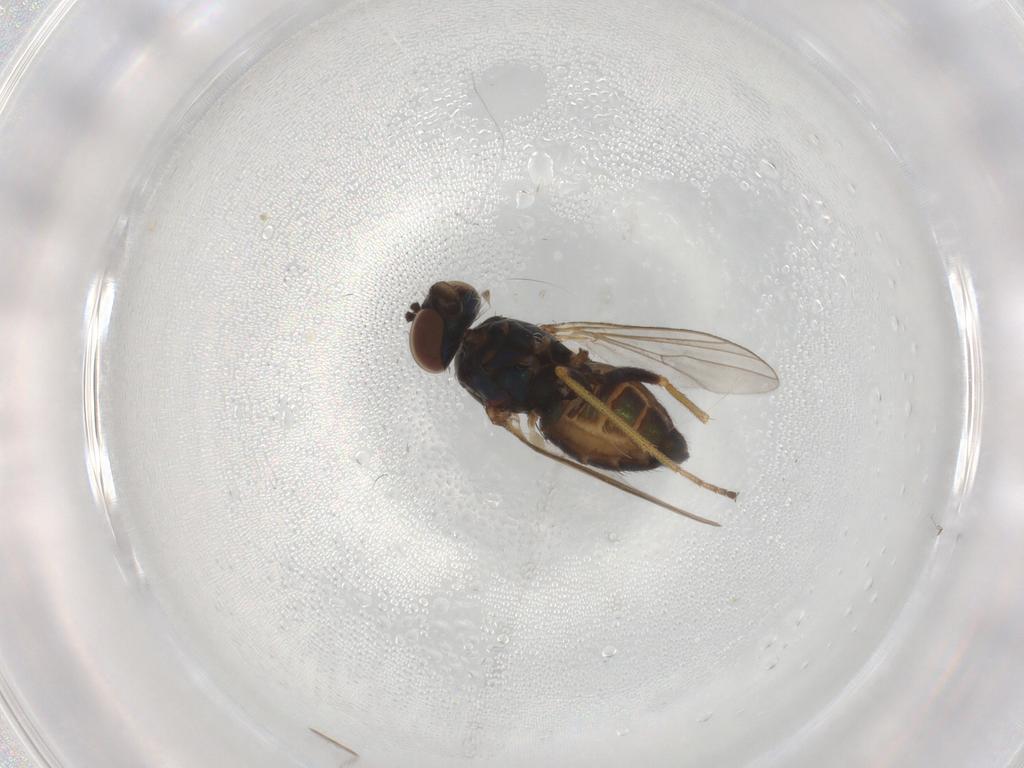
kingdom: Animalia
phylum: Arthropoda
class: Insecta
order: Diptera
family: Dolichopodidae
